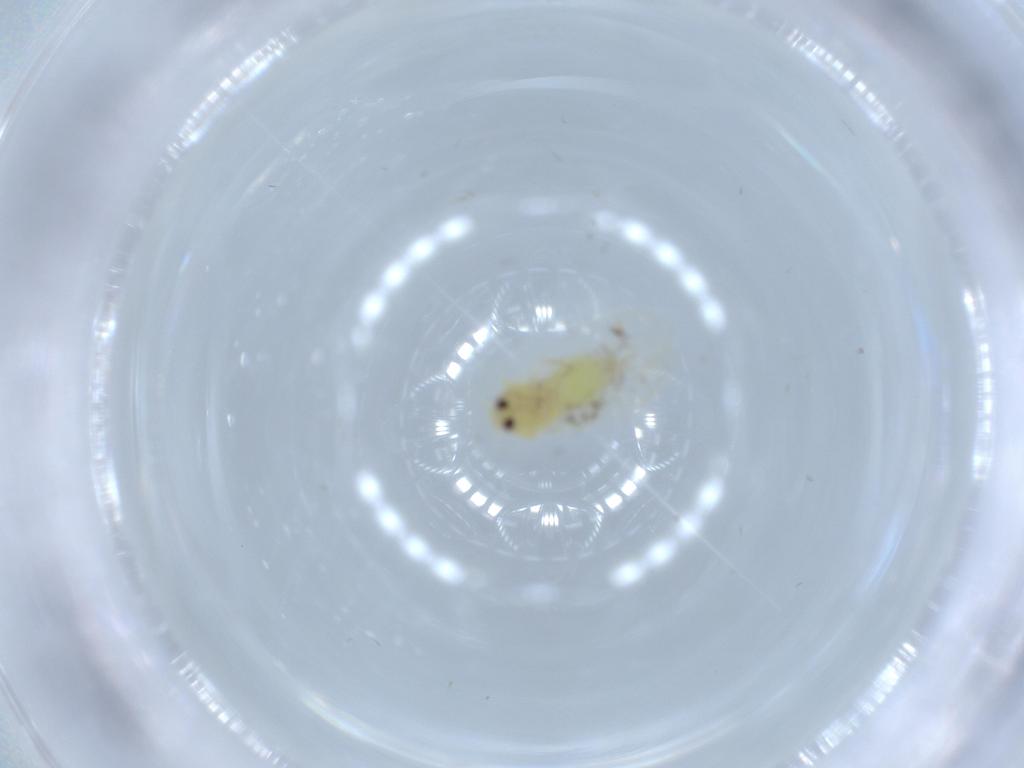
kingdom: Animalia
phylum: Arthropoda
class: Insecta
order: Hemiptera
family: Aleyrodidae
